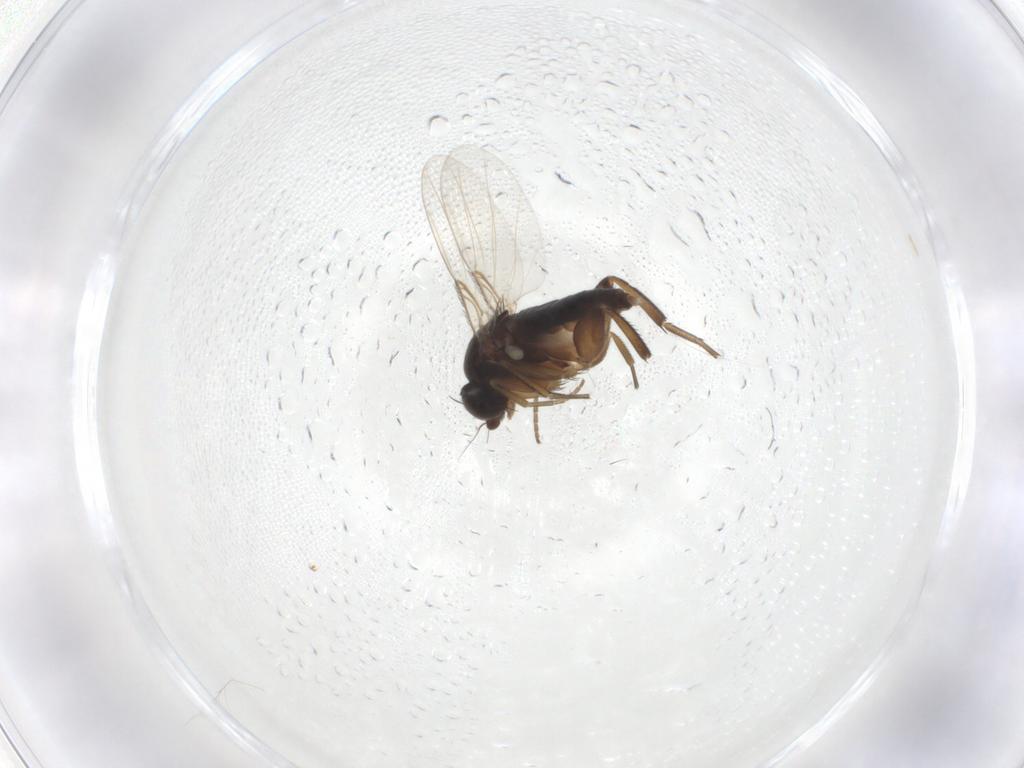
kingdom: Animalia
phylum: Arthropoda
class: Insecta
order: Diptera
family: Phoridae
